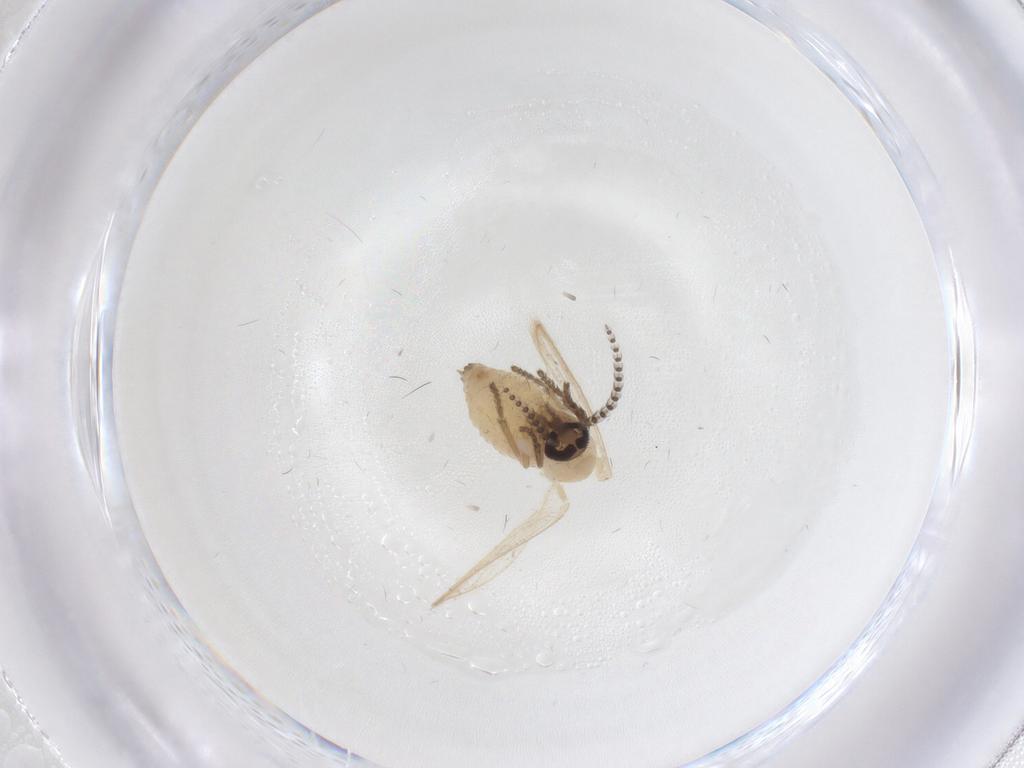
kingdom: Animalia
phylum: Arthropoda
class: Insecta
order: Diptera
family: Psychodidae
